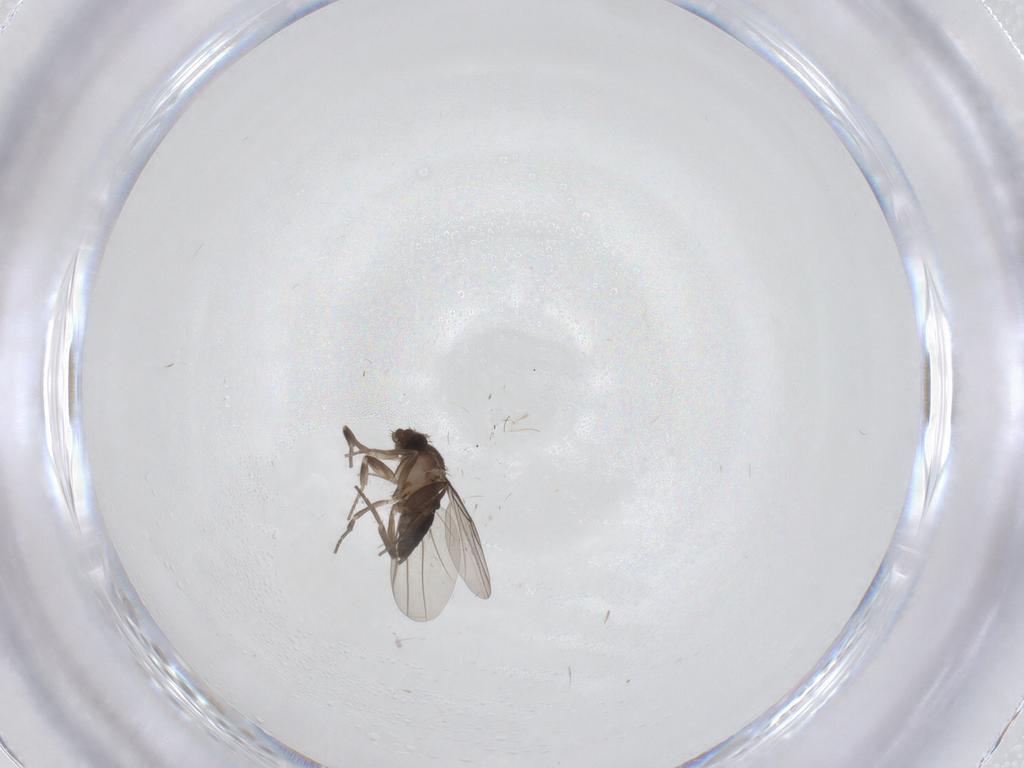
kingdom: Animalia
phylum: Arthropoda
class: Insecta
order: Diptera
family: Chironomidae
